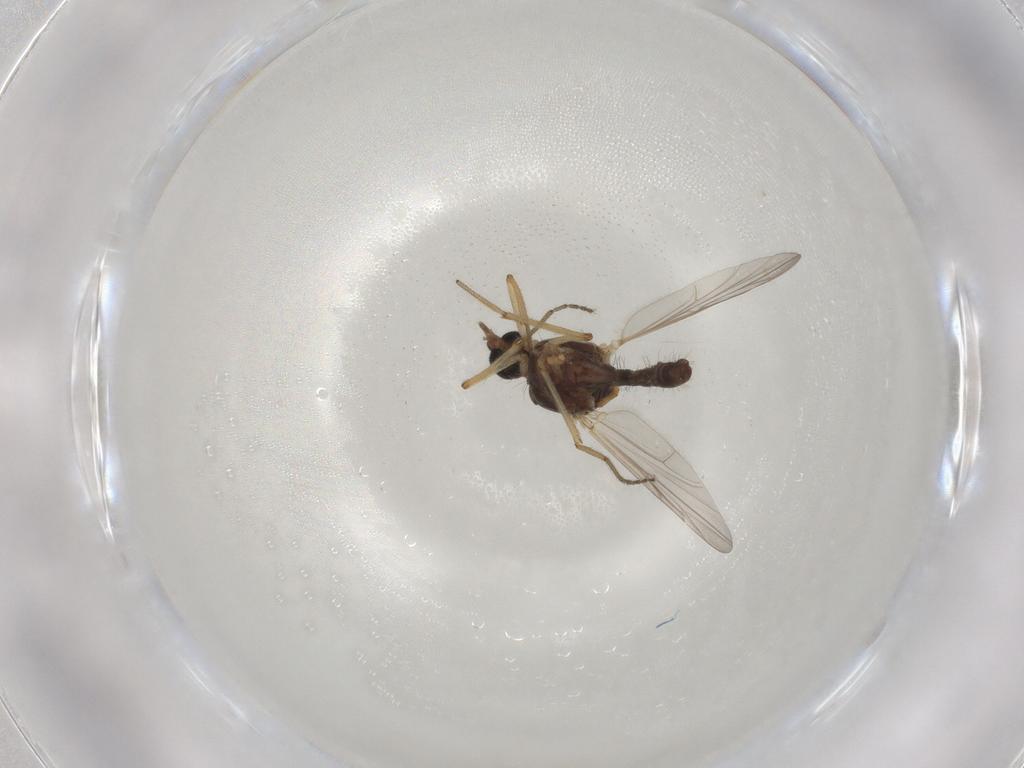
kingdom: Animalia
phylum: Arthropoda
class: Insecta
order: Diptera
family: Ceratopogonidae
